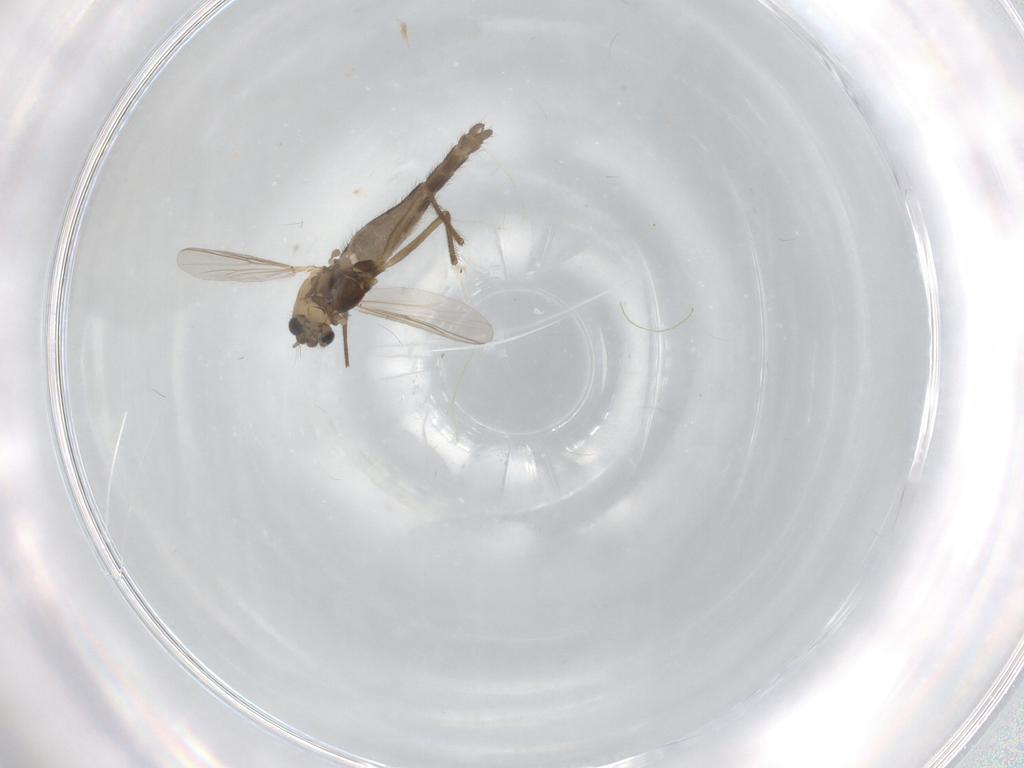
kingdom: Animalia
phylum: Arthropoda
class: Insecta
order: Diptera
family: Chironomidae
